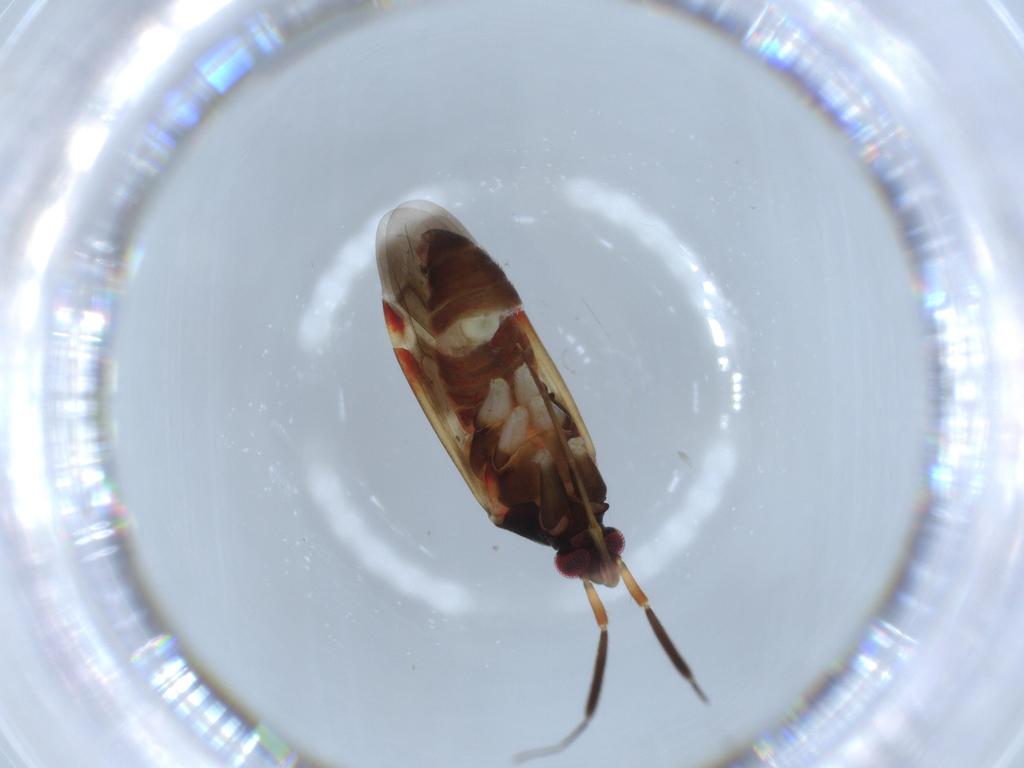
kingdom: Animalia
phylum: Arthropoda
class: Insecta
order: Hemiptera
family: Miridae
